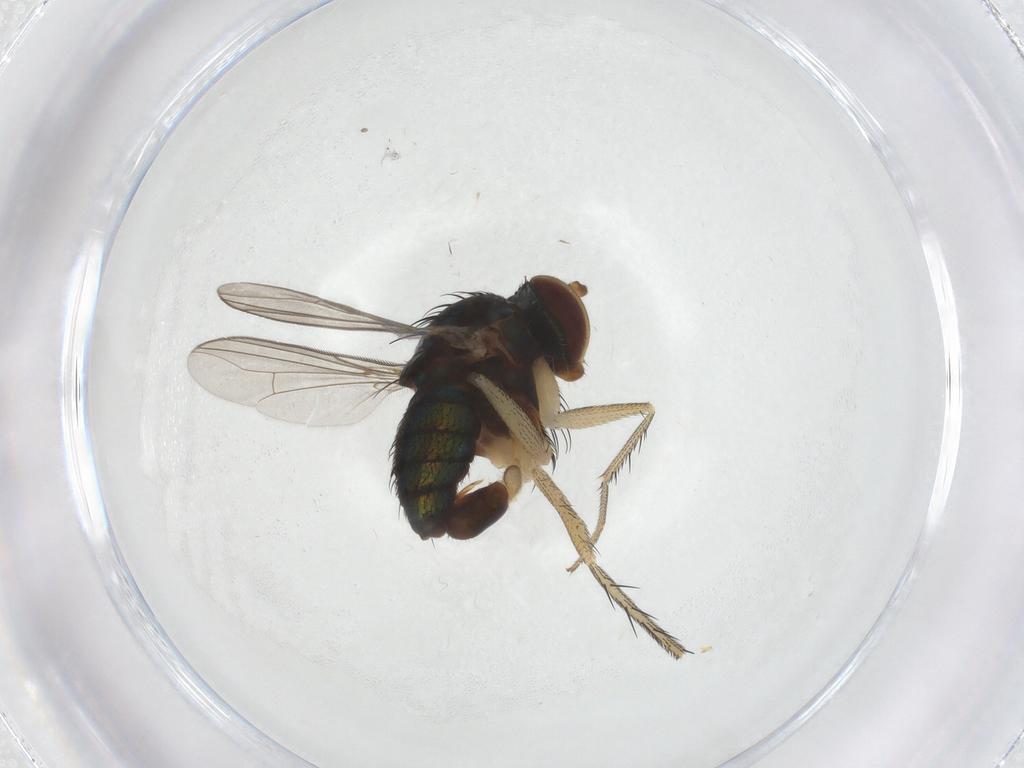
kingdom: Animalia
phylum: Arthropoda
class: Insecta
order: Diptera
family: Dolichopodidae
